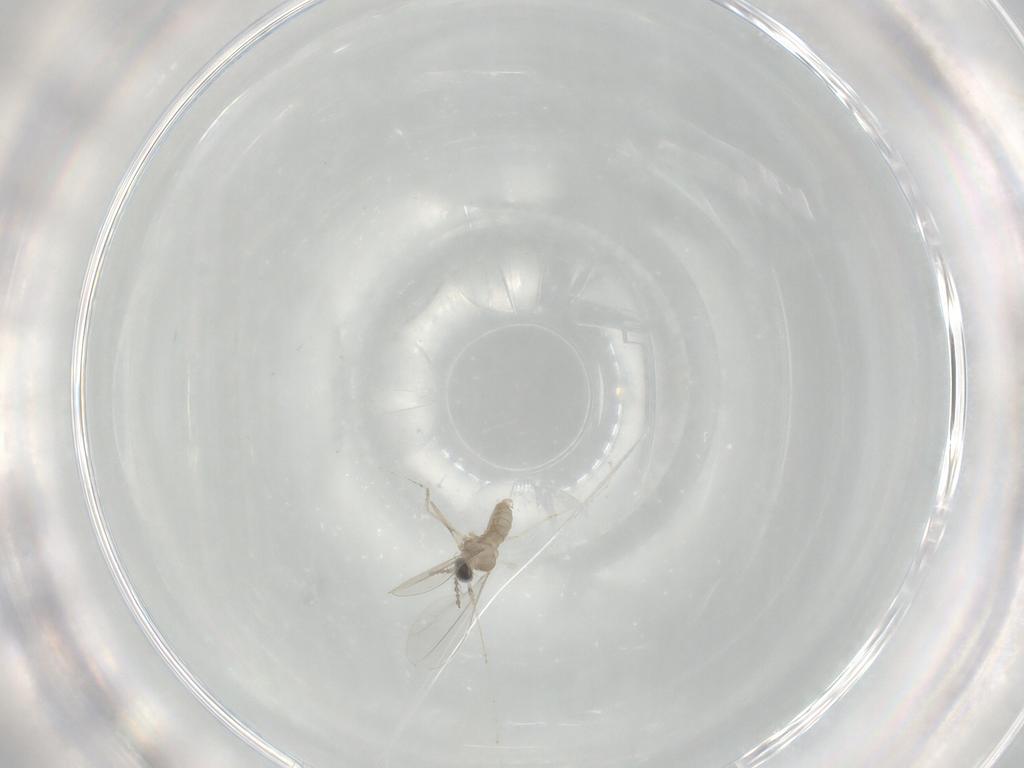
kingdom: Animalia
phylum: Arthropoda
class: Insecta
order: Diptera
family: Cecidomyiidae
